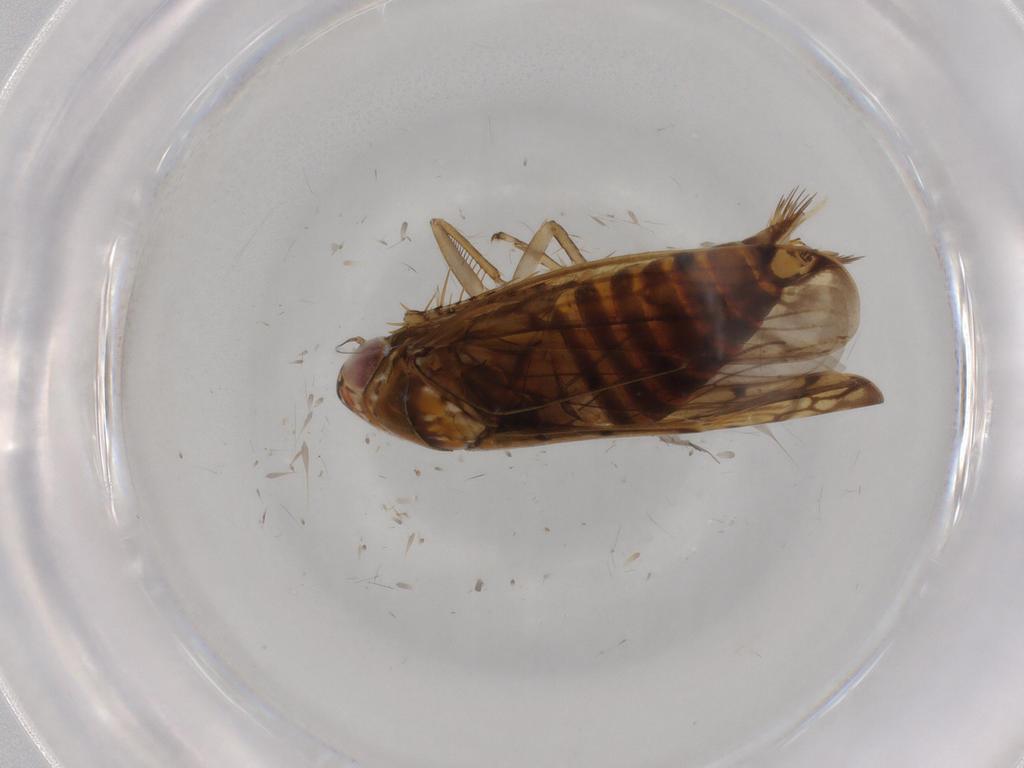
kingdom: Animalia
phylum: Arthropoda
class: Insecta
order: Hemiptera
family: Cicadellidae
